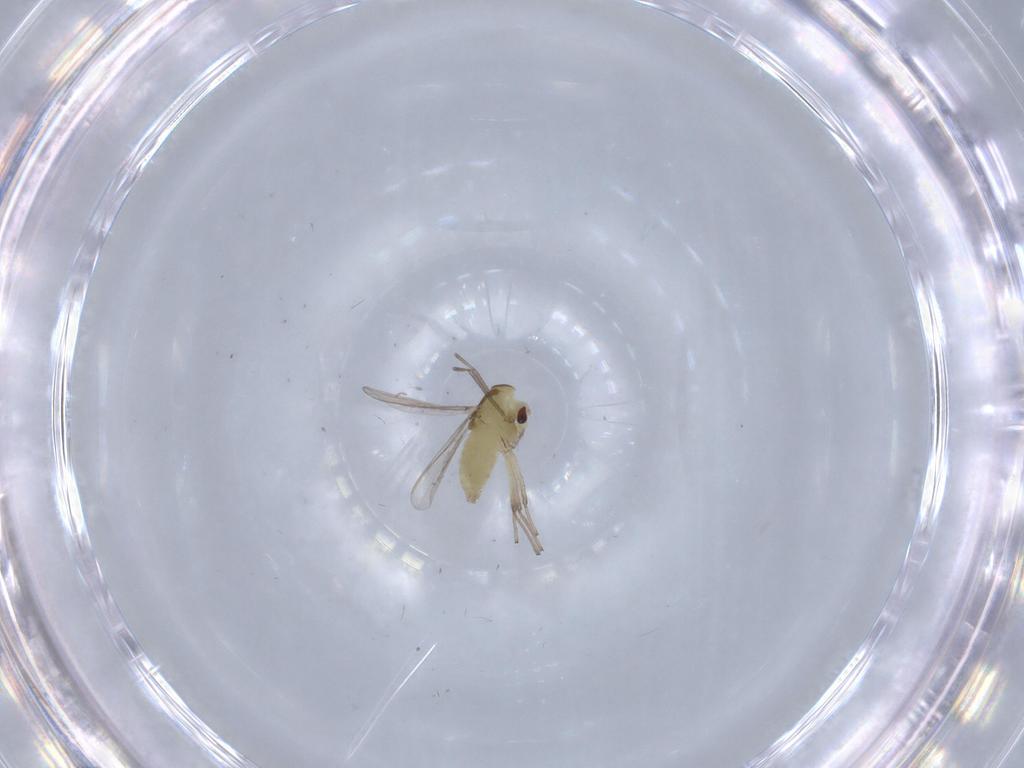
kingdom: Animalia
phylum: Arthropoda
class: Insecta
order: Diptera
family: Chironomidae
